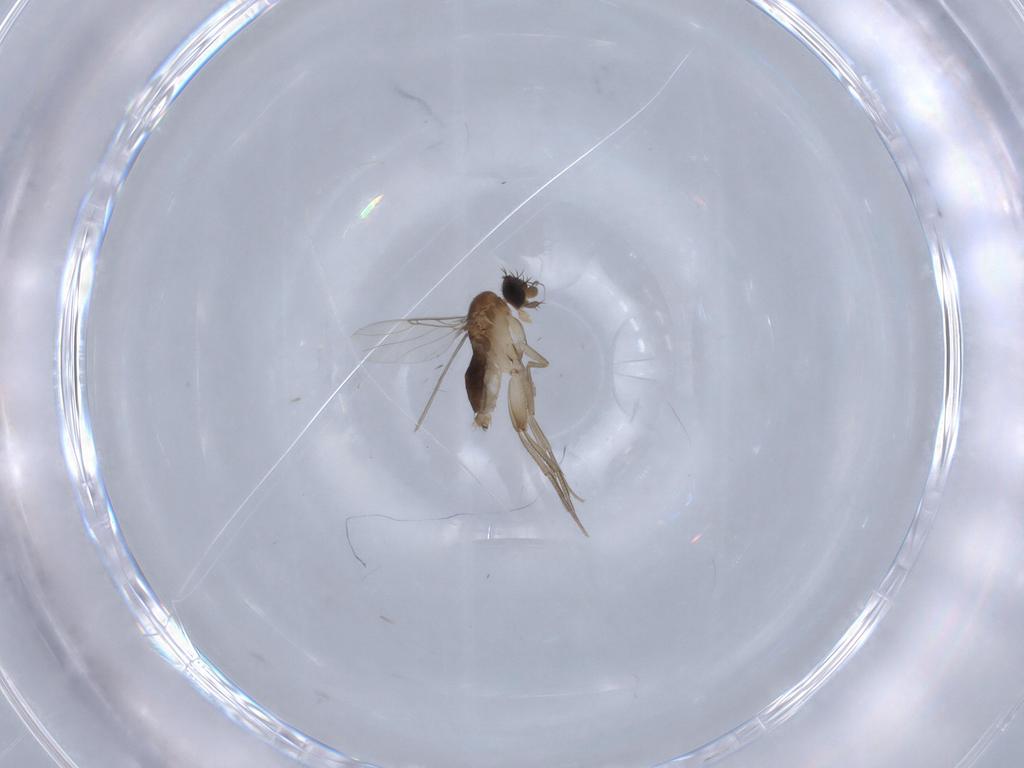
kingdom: Animalia
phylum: Arthropoda
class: Insecta
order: Diptera
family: Phoridae
